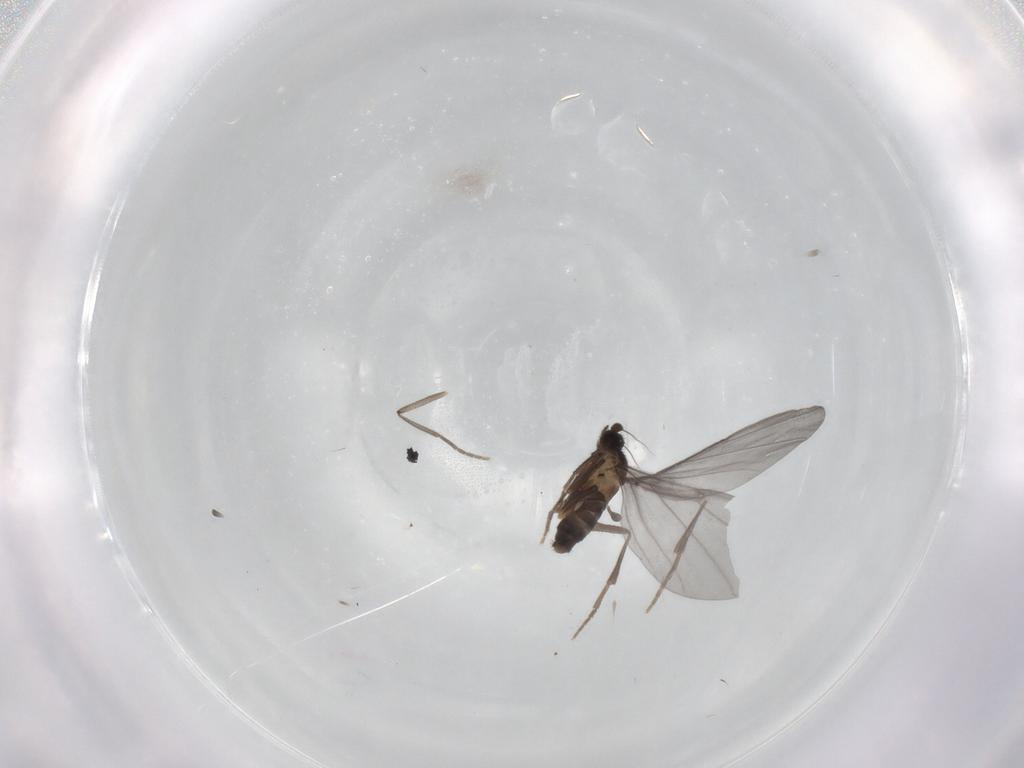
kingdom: Animalia
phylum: Arthropoda
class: Insecta
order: Diptera
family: Phoridae
